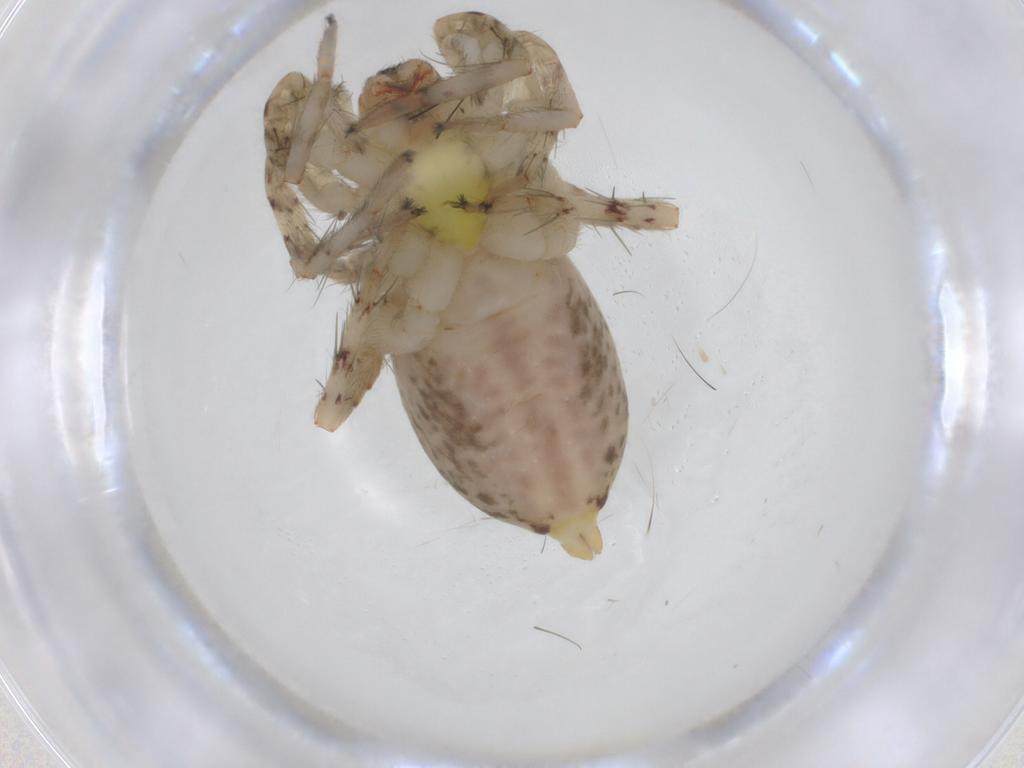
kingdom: Animalia
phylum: Arthropoda
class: Arachnida
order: Araneae
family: Anyphaenidae
